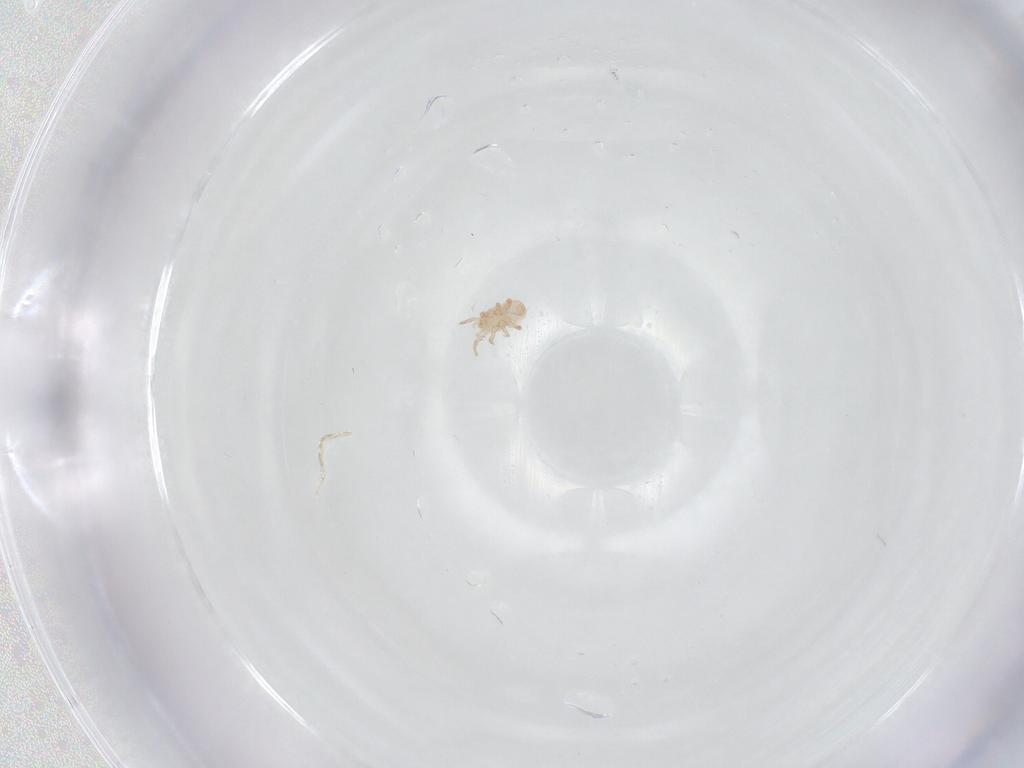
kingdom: Animalia
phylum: Arthropoda
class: Arachnida
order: Mesostigmata
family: Digamasellidae
